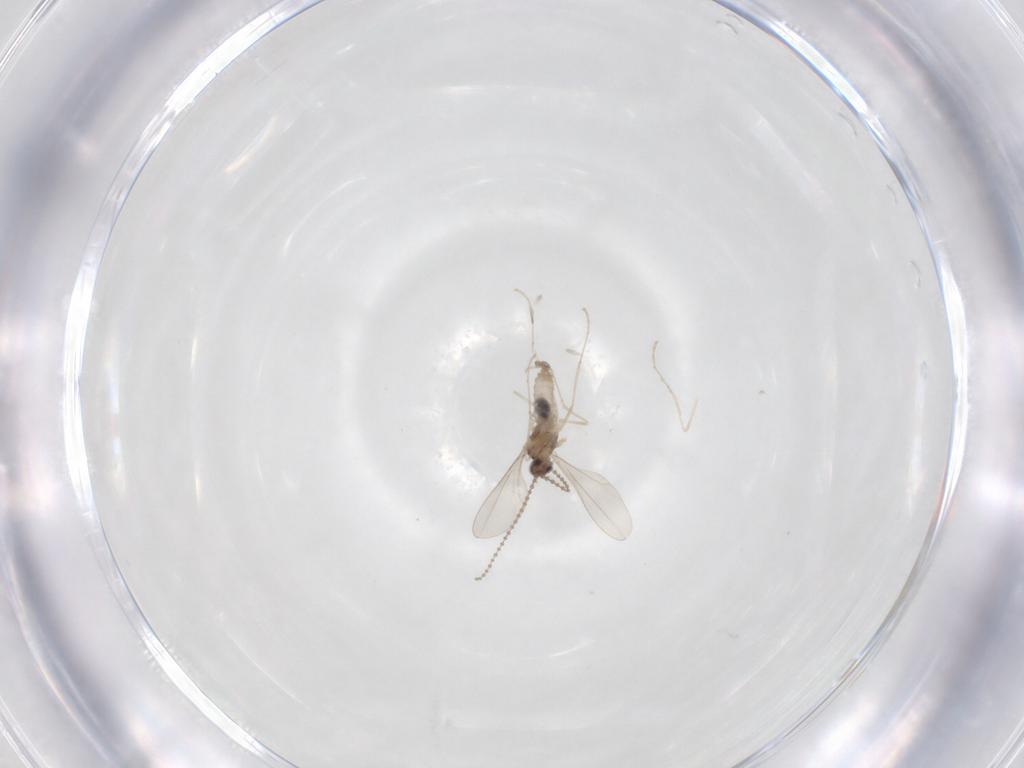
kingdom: Animalia
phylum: Arthropoda
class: Insecta
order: Diptera
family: Cecidomyiidae
